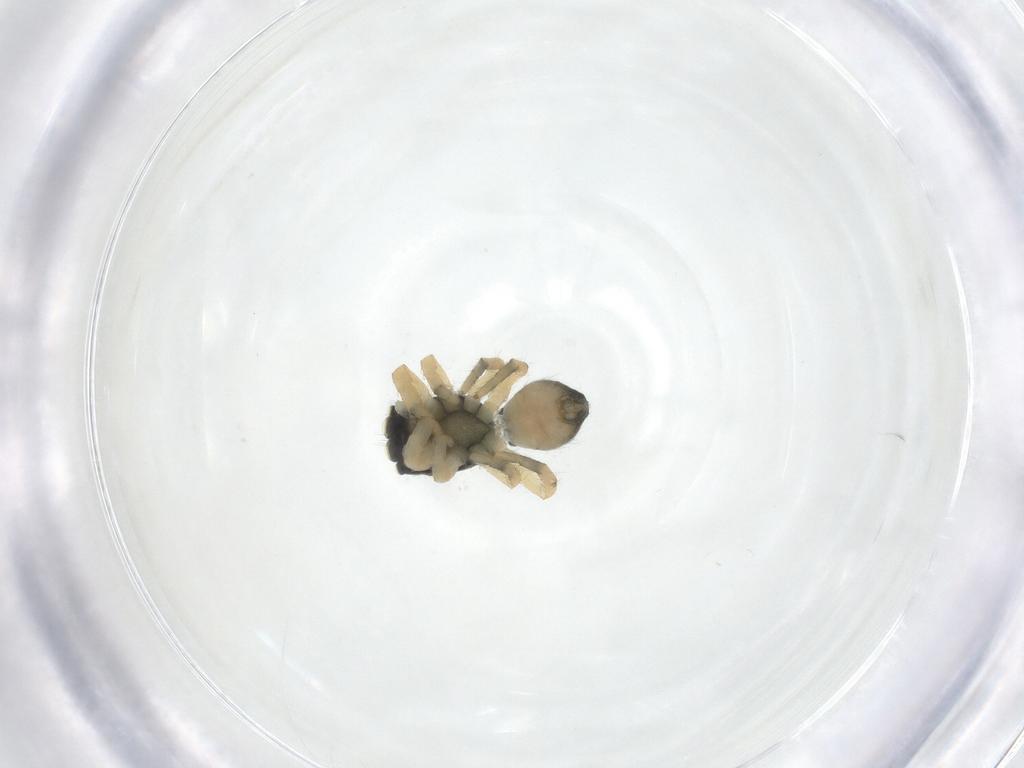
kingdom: Animalia
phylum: Arthropoda
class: Arachnida
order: Araneae
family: Salticidae
